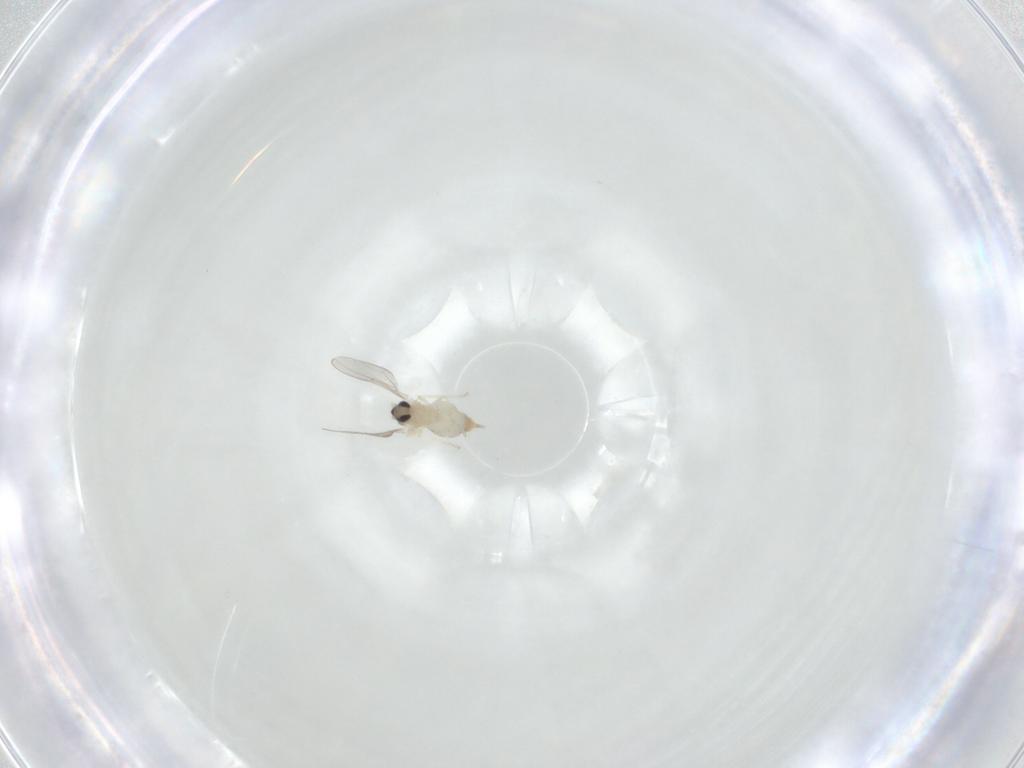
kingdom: Animalia
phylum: Arthropoda
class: Insecta
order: Diptera
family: Cecidomyiidae
